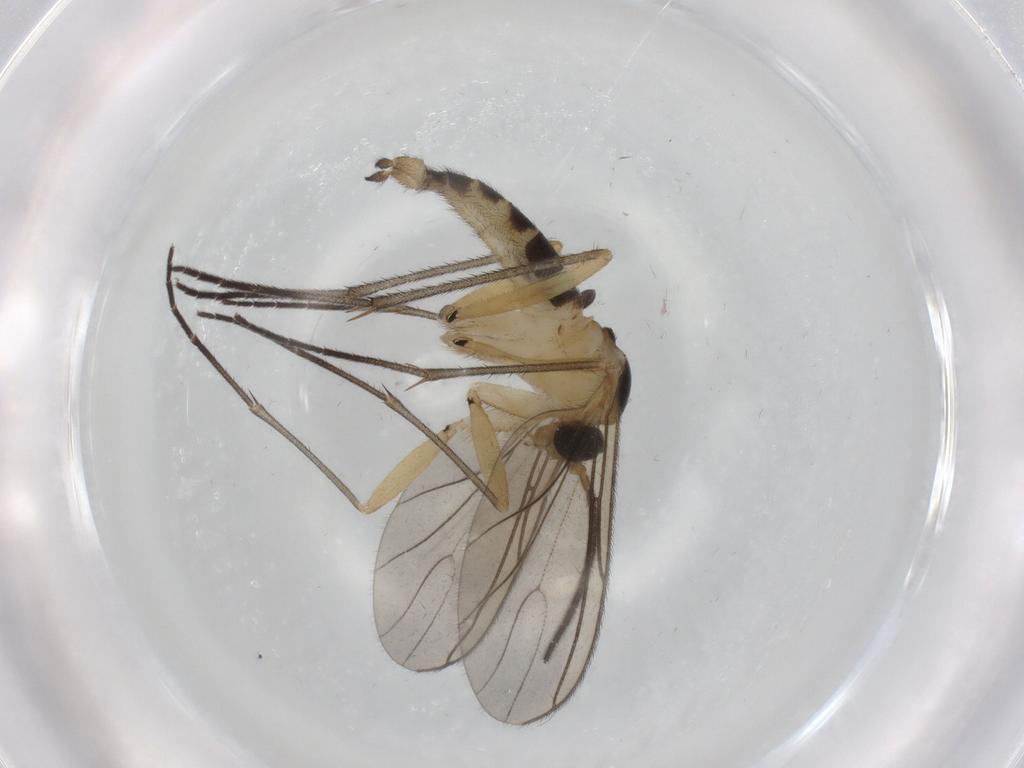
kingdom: Animalia
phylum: Arthropoda
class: Insecta
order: Diptera
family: Sciaridae
